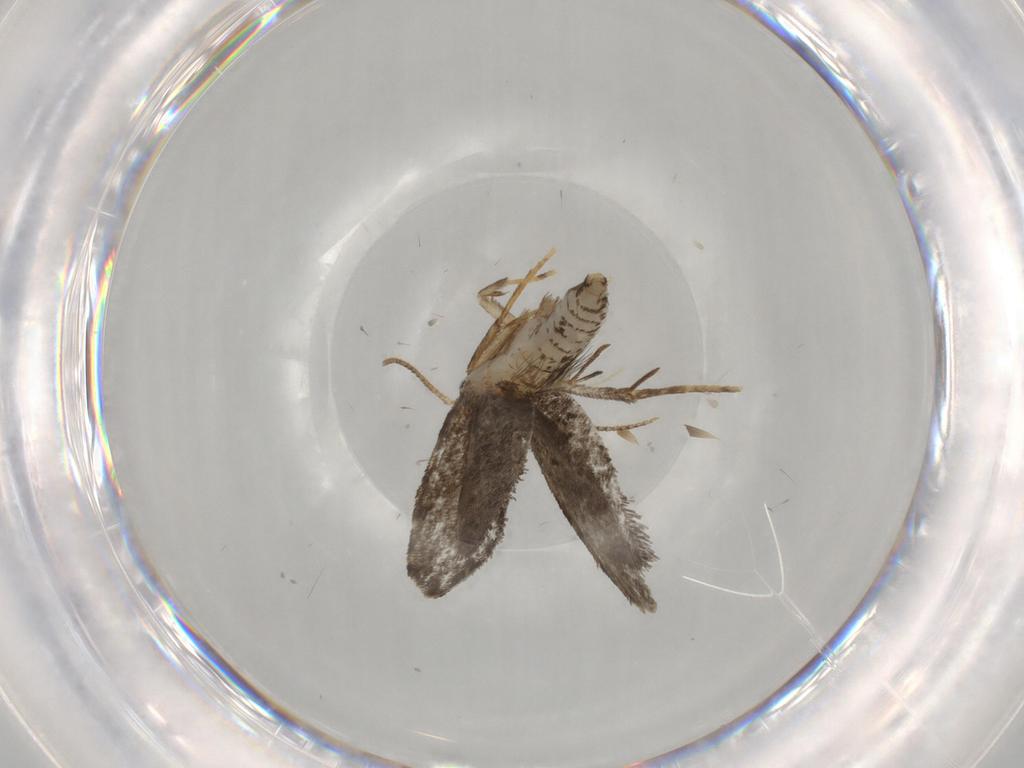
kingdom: Animalia
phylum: Arthropoda
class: Insecta
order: Lepidoptera
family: Psychidae
